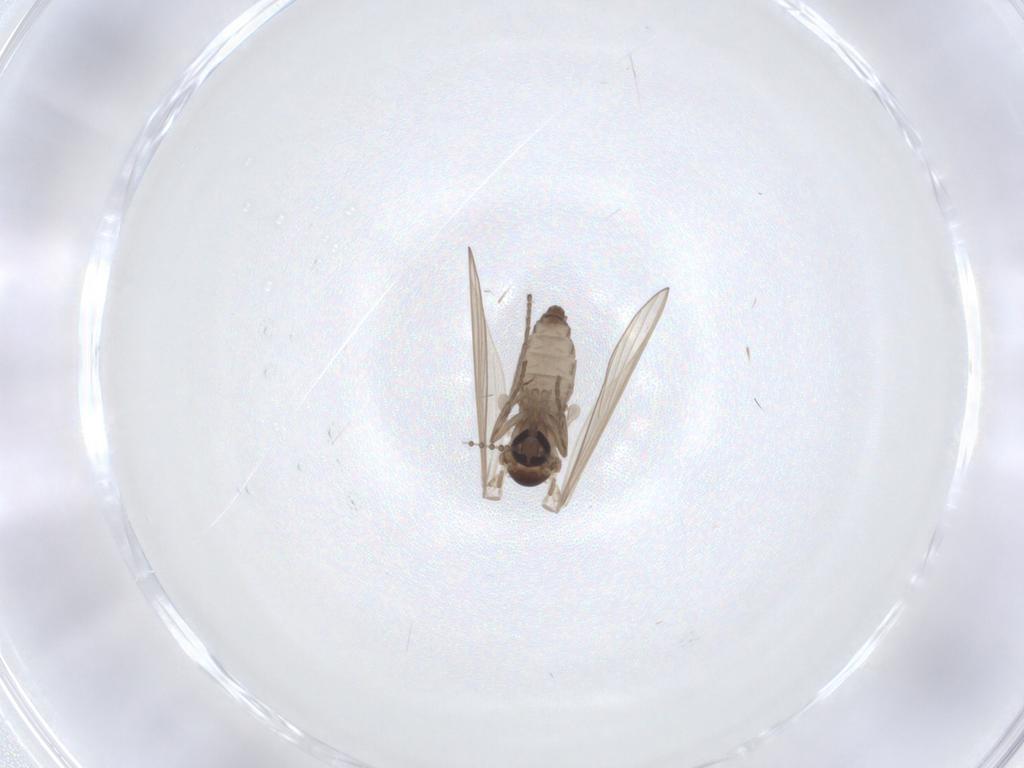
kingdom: Animalia
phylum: Arthropoda
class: Insecta
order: Diptera
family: Psychodidae
